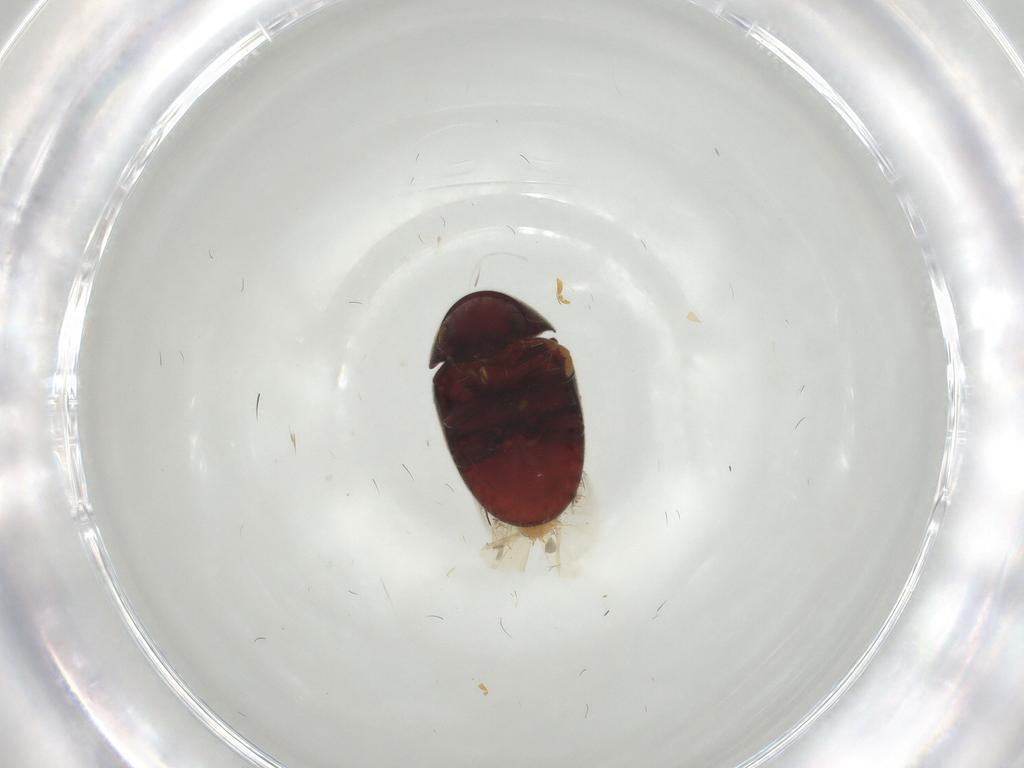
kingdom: Animalia
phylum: Arthropoda
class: Insecta
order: Coleoptera
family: Ptinidae
